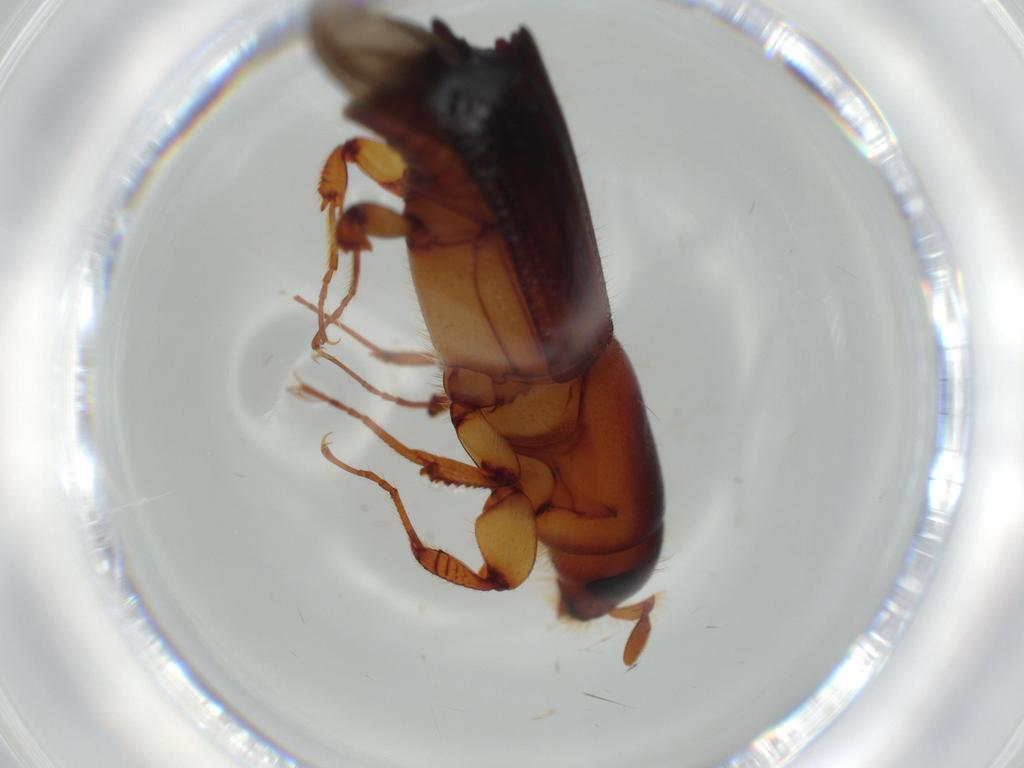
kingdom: Animalia
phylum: Arthropoda
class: Insecta
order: Coleoptera
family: Curculionidae
